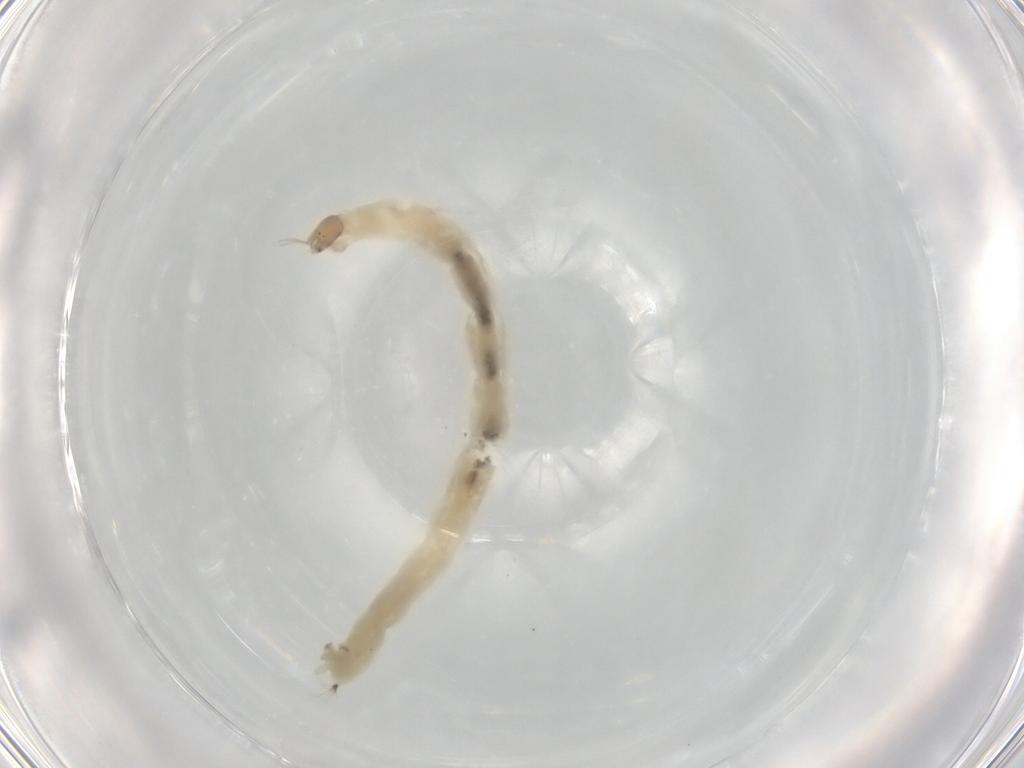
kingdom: Animalia
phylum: Arthropoda
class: Insecta
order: Diptera
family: Chironomidae
